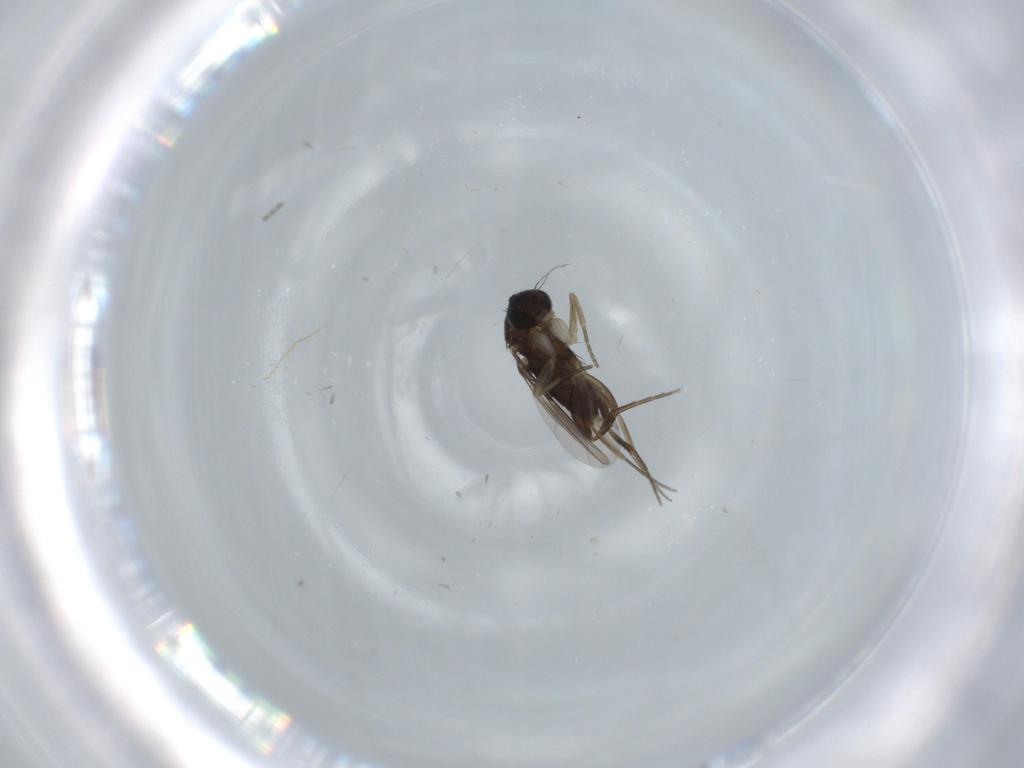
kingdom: Animalia
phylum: Arthropoda
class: Insecta
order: Diptera
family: Phoridae
